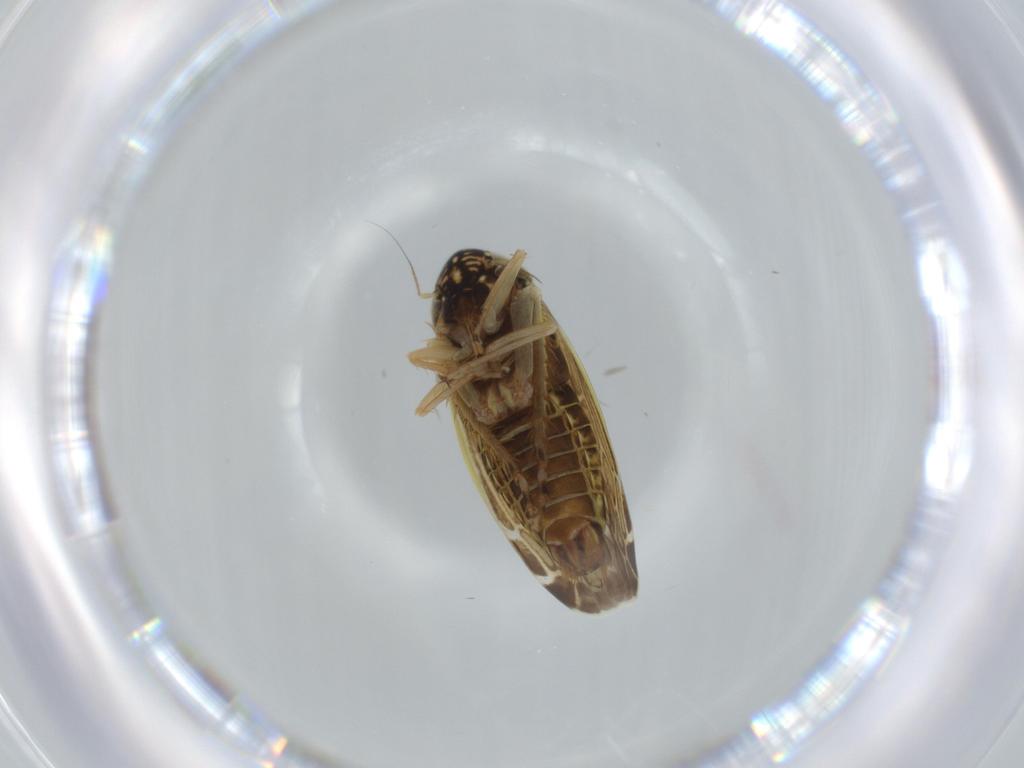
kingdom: Animalia
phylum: Arthropoda
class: Insecta
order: Hemiptera
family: Cicadellidae
